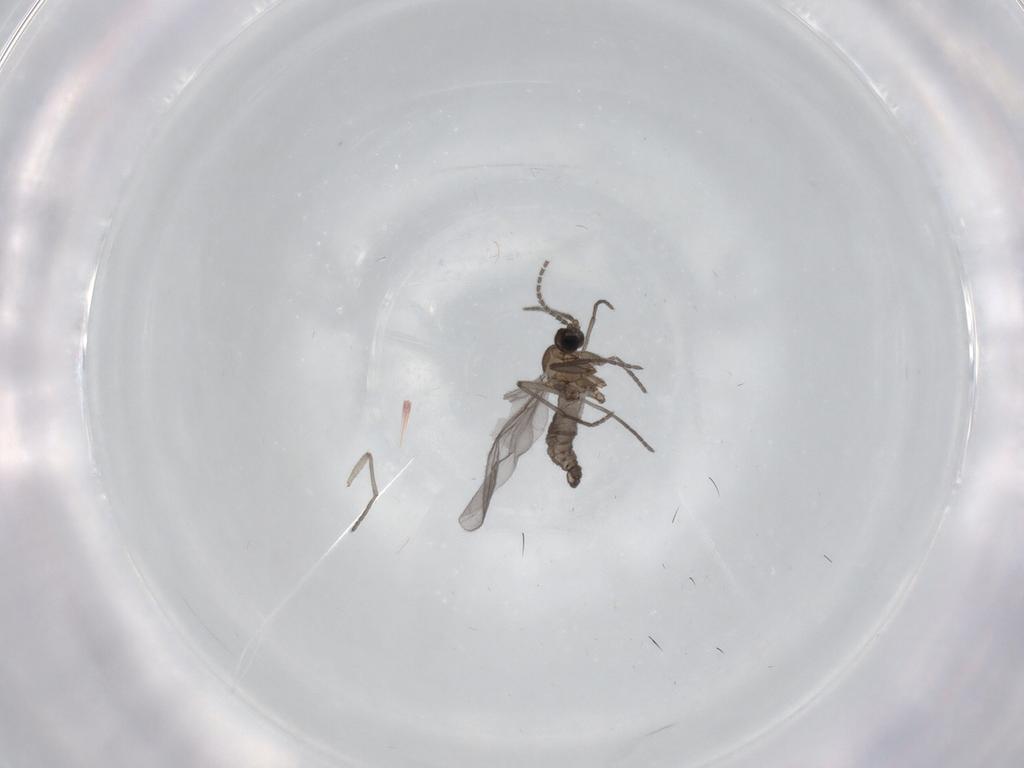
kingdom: Animalia
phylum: Arthropoda
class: Insecta
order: Diptera
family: Sciaridae
